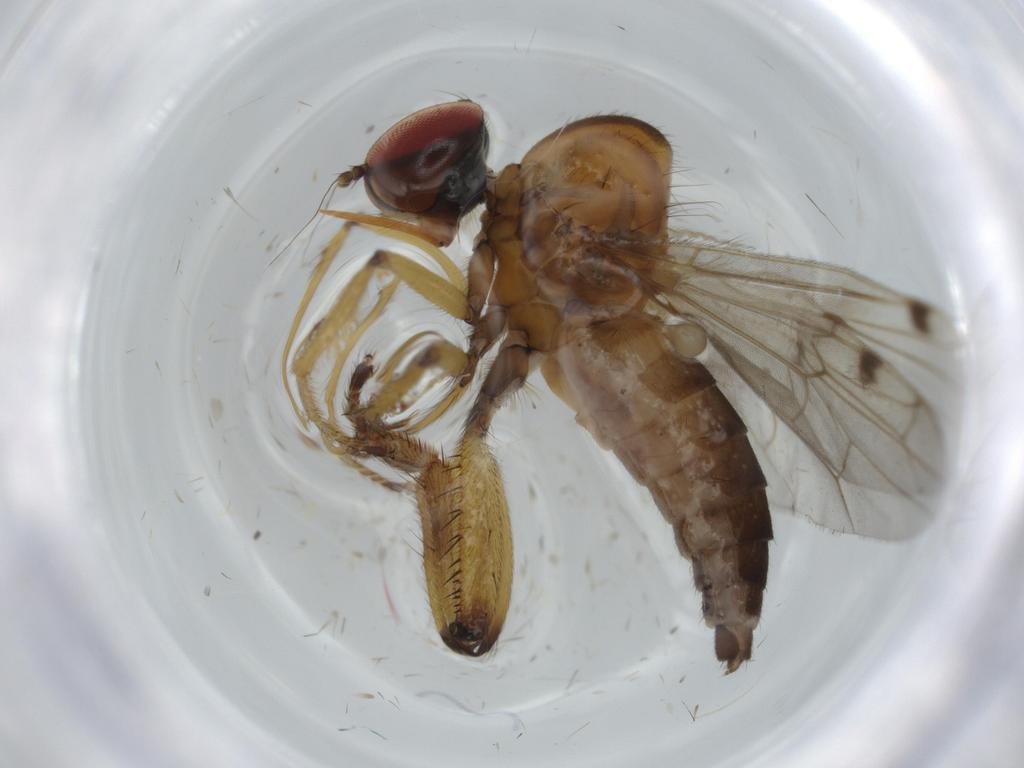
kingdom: Animalia
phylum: Arthropoda
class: Insecta
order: Diptera
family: Hybotidae
